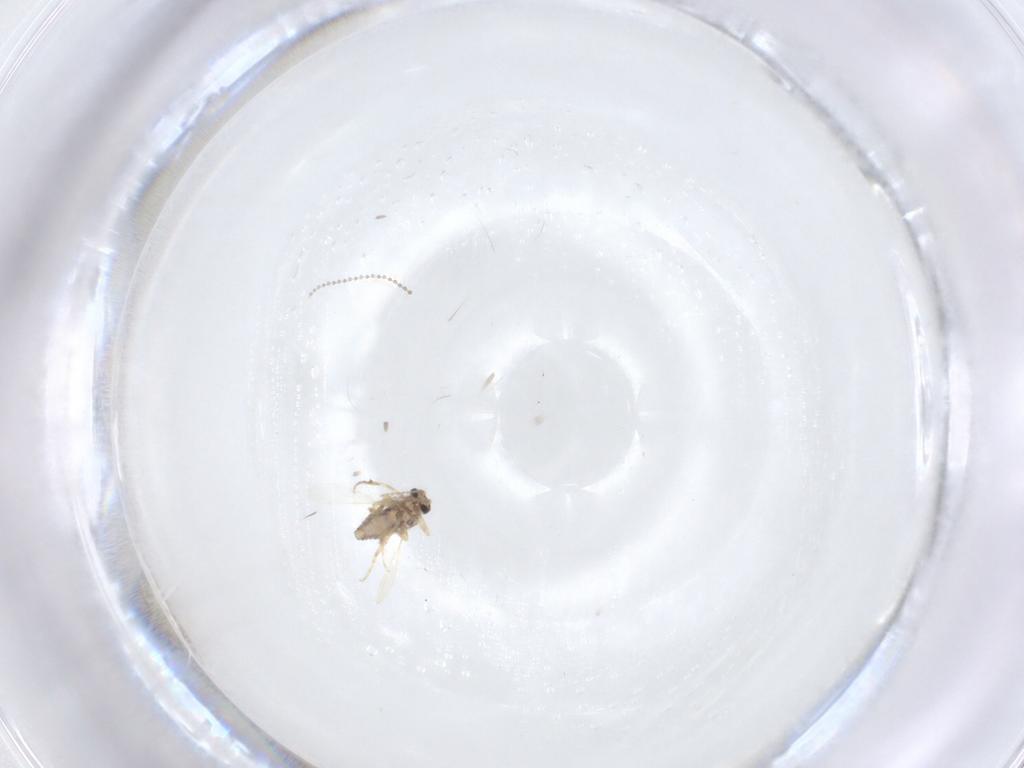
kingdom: Animalia
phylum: Arthropoda
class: Insecta
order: Diptera
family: Cecidomyiidae
